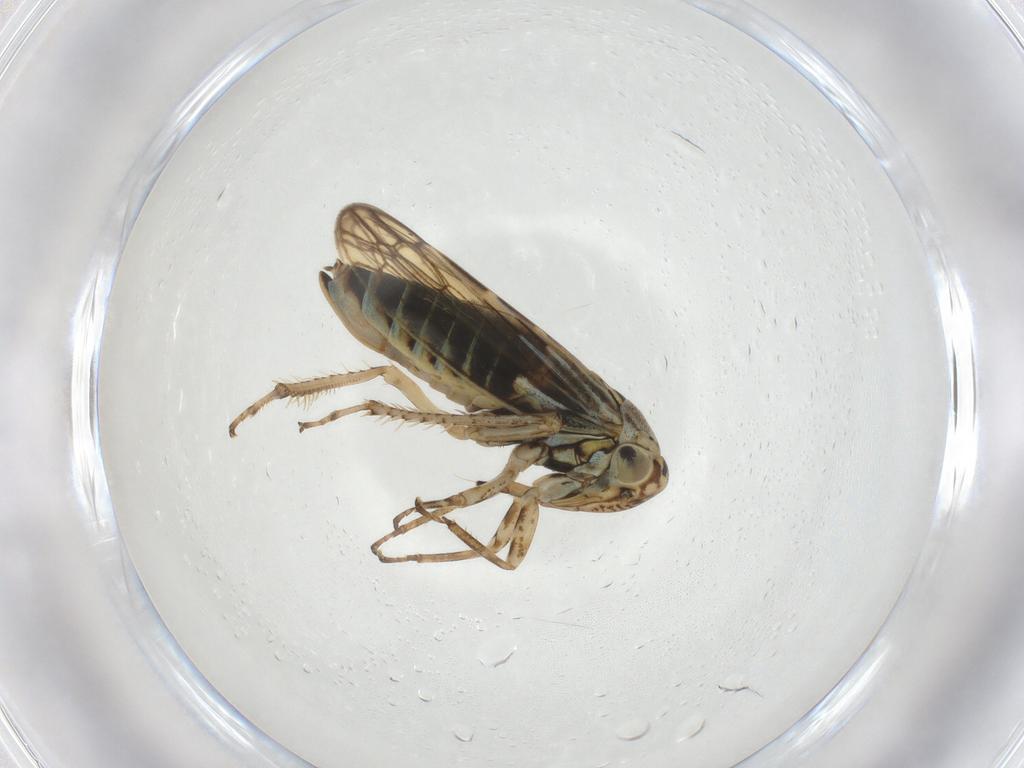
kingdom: Animalia
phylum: Arthropoda
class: Insecta
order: Hemiptera
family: Cicadellidae
